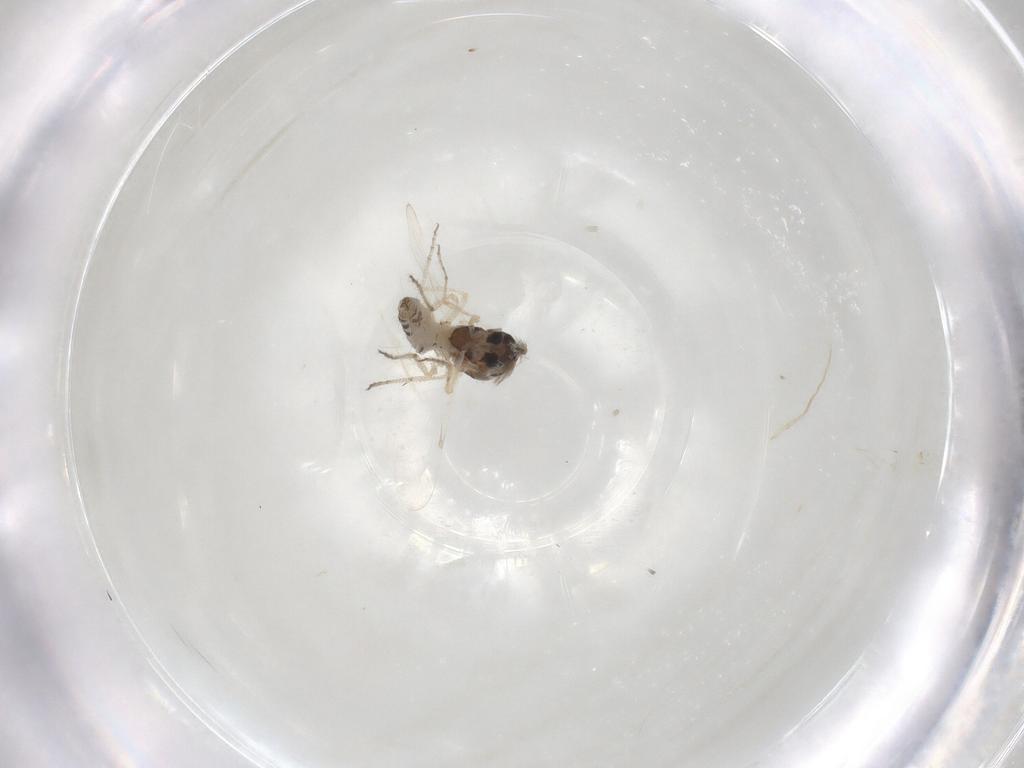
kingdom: Animalia
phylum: Arthropoda
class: Insecta
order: Diptera
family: Ceratopogonidae
